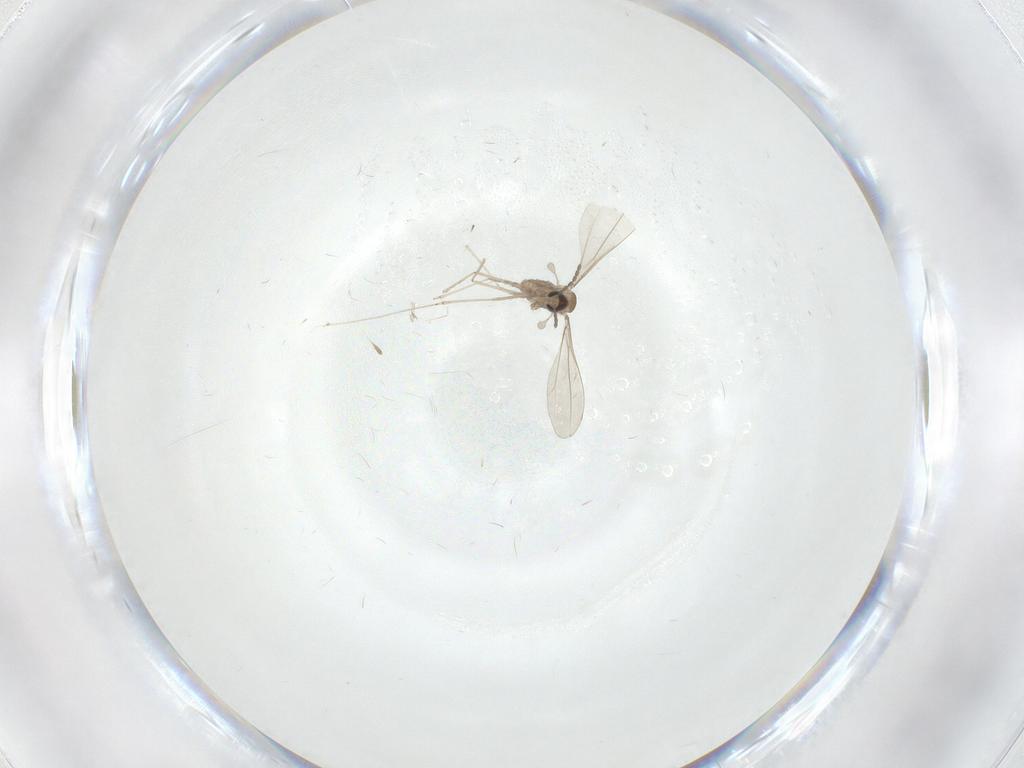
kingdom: Animalia
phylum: Arthropoda
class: Insecta
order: Diptera
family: Cecidomyiidae
